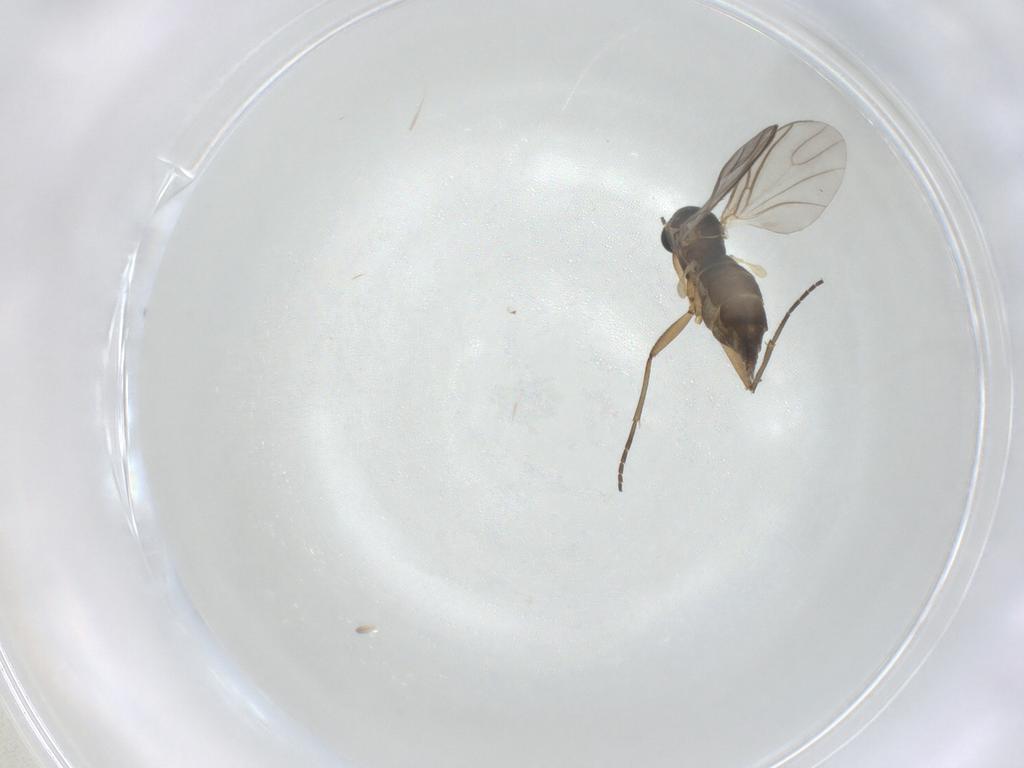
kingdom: Animalia
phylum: Arthropoda
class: Insecta
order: Diptera
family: Sciaridae
